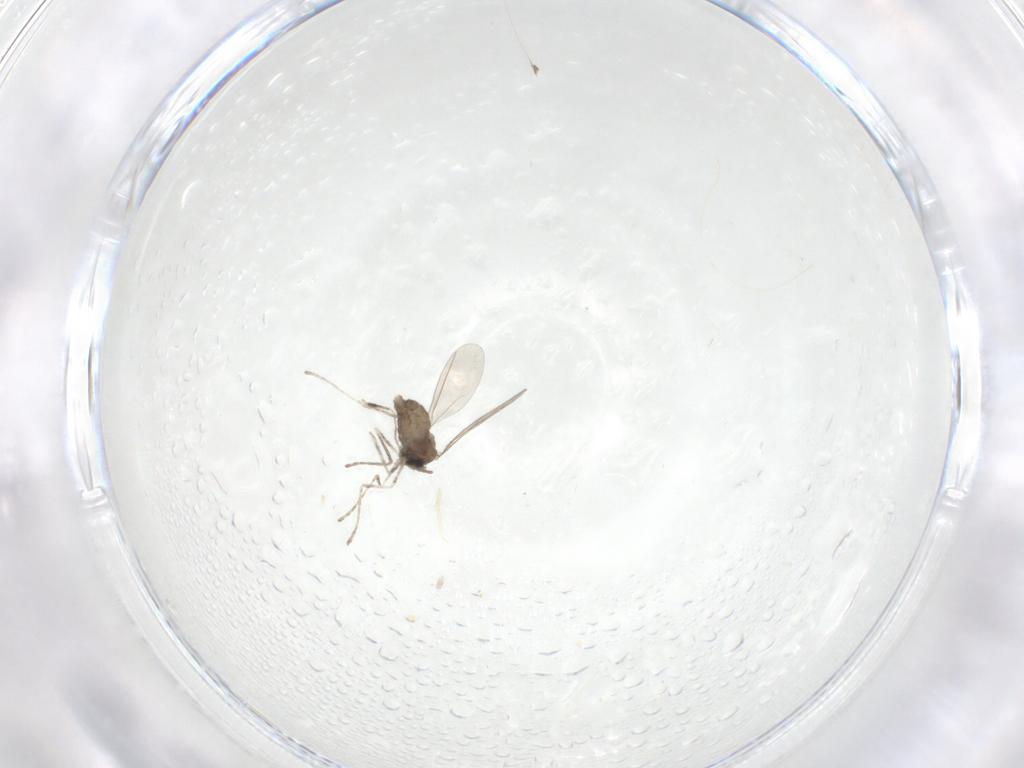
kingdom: Animalia
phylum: Arthropoda
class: Insecta
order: Diptera
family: Cecidomyiidae
